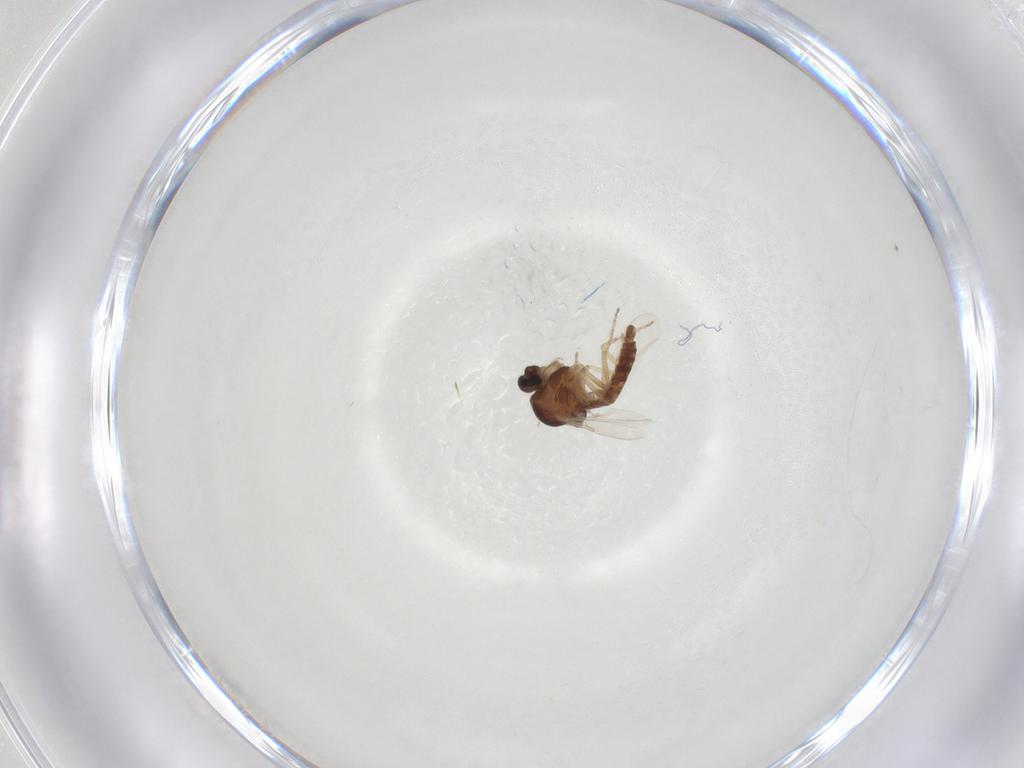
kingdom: Animalia
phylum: Arthropoda
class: Insecta
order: Diptera
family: Ceratopogonidae
